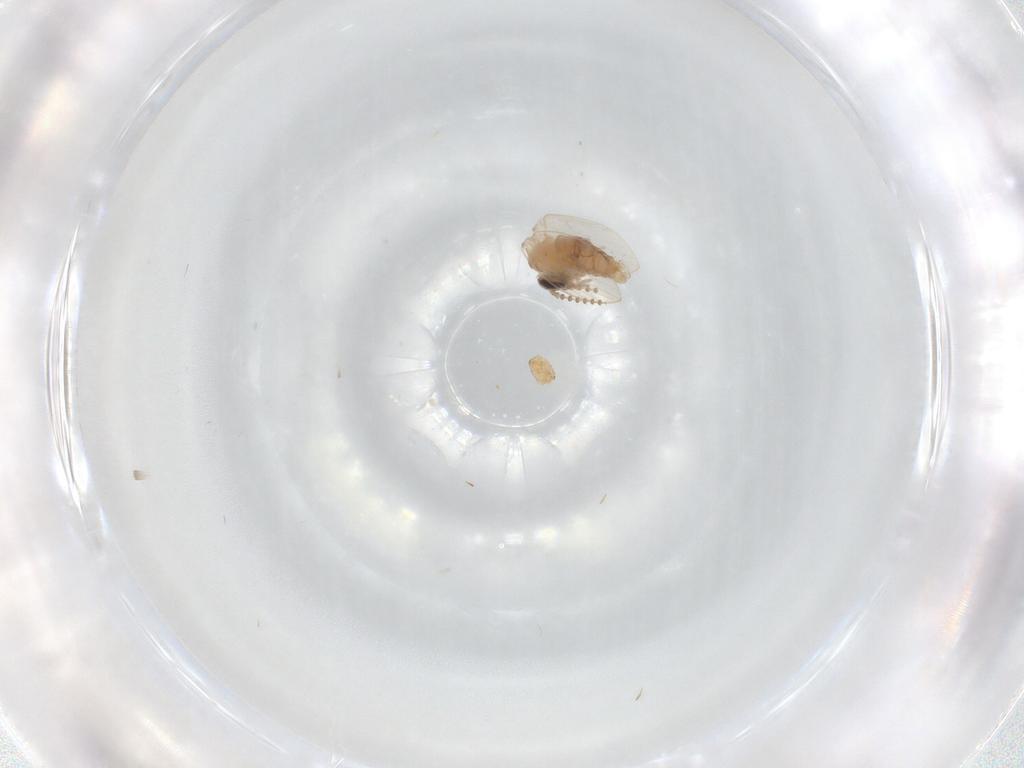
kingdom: Animalia
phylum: Arthropoda
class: Insecta
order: Diptera
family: Psychodidae
